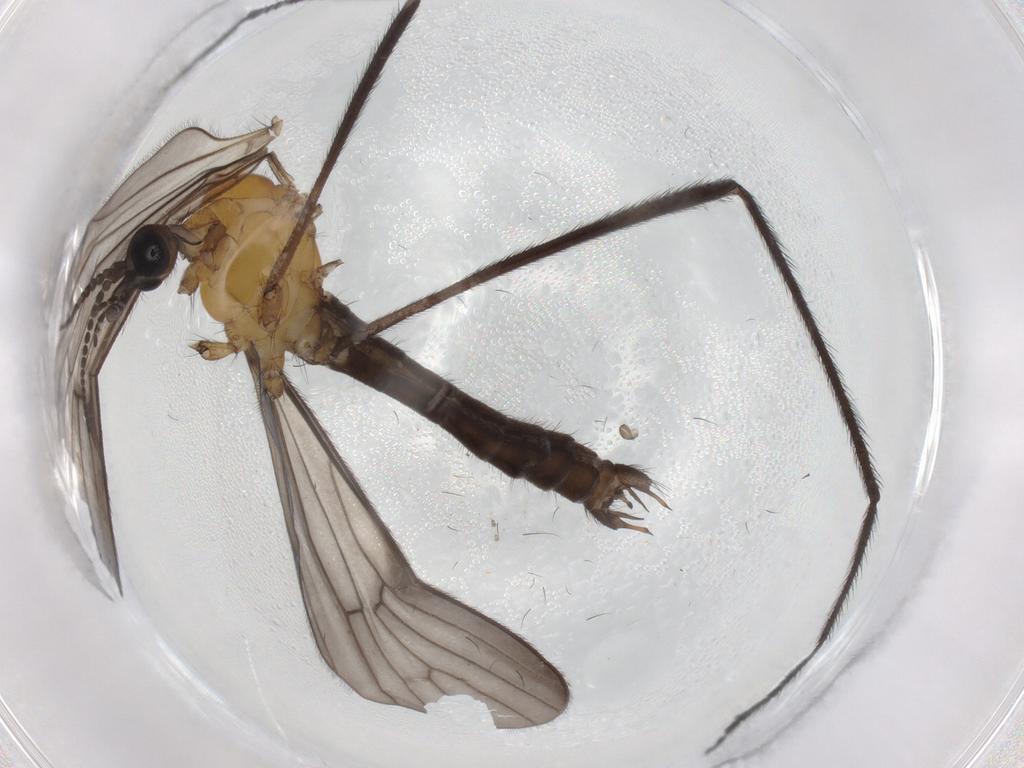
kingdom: Animalia
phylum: Arthropoda
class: Insecta
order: Diptera
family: Limoniidae
